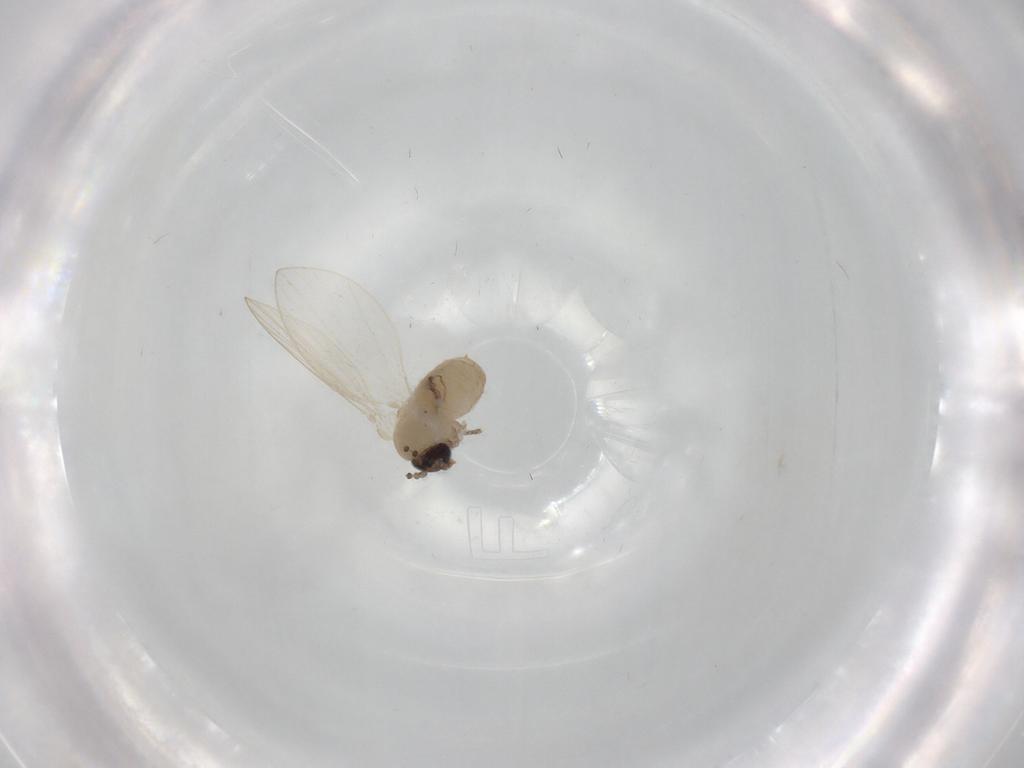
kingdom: Animalia
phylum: Arthropoda
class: Insecta
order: Diptera
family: Psychodidae
